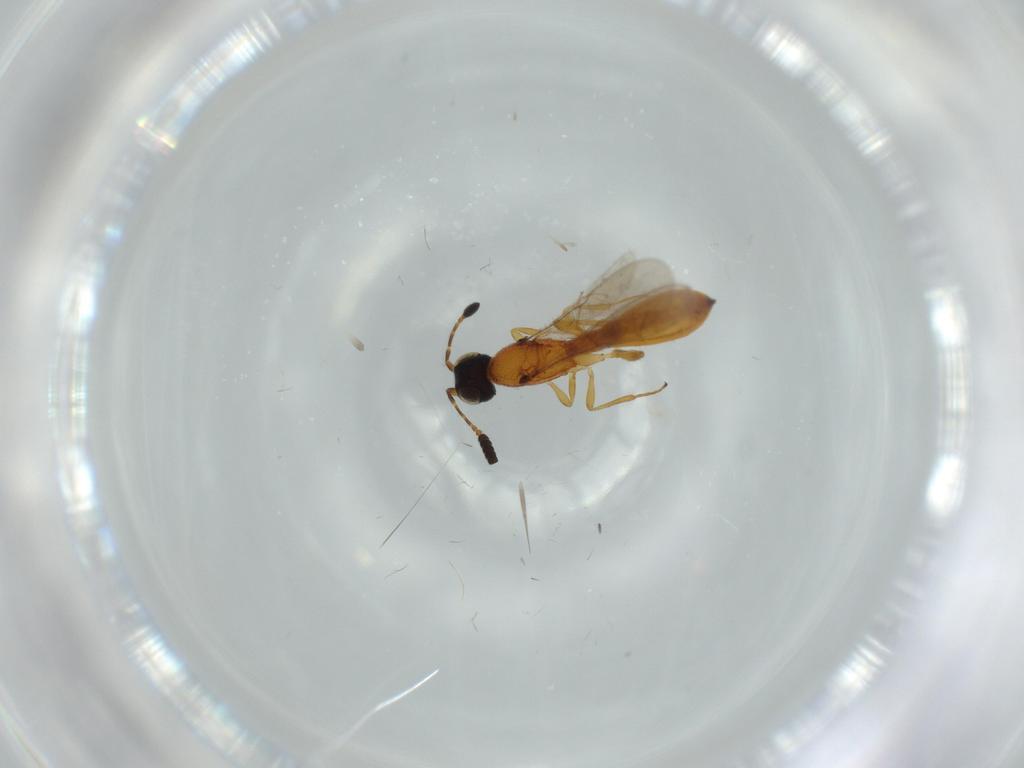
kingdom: Animalia
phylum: Arthropoda
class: Insecta
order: Hymenoptera
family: Scelionidae
